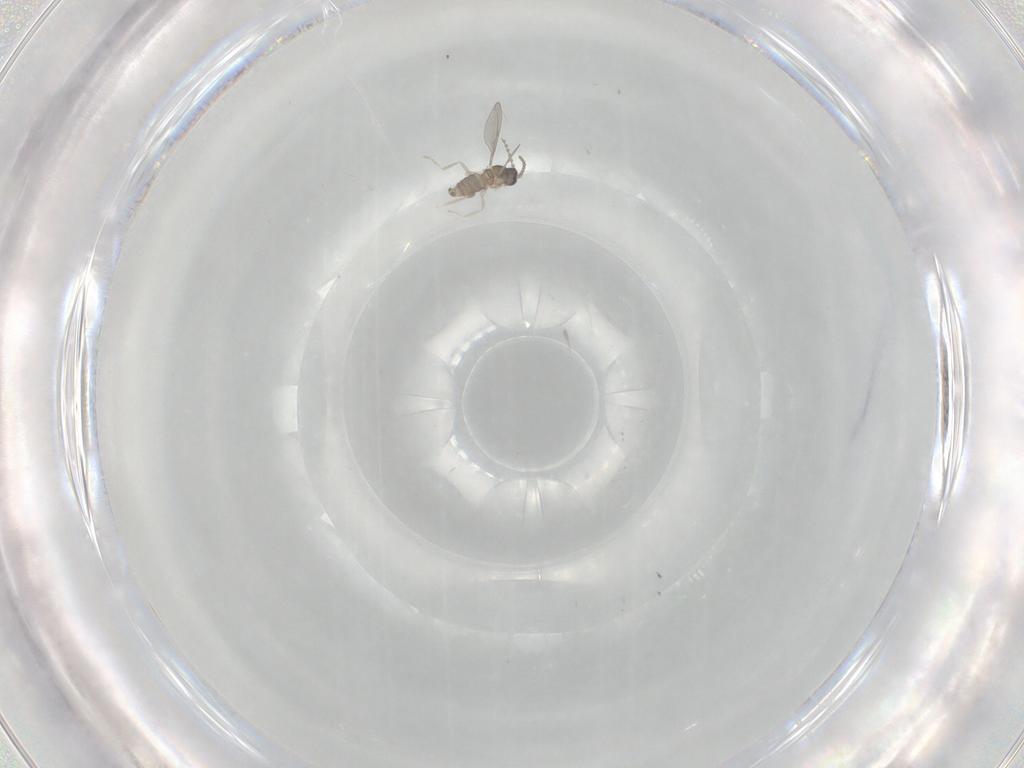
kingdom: Animalia
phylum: Arthropoda
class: Insecta
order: Diptera
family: Cecidomyiidae
